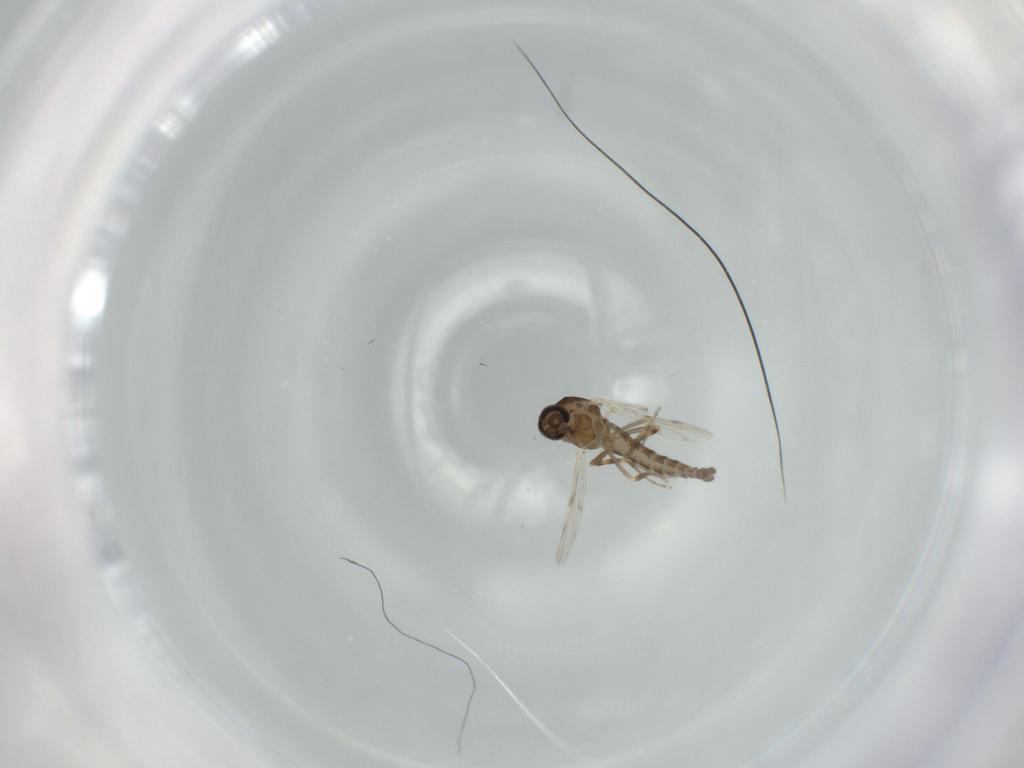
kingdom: Animalia
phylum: Arthropoda
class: Insecta
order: Diptera
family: Ceratopogonidae
